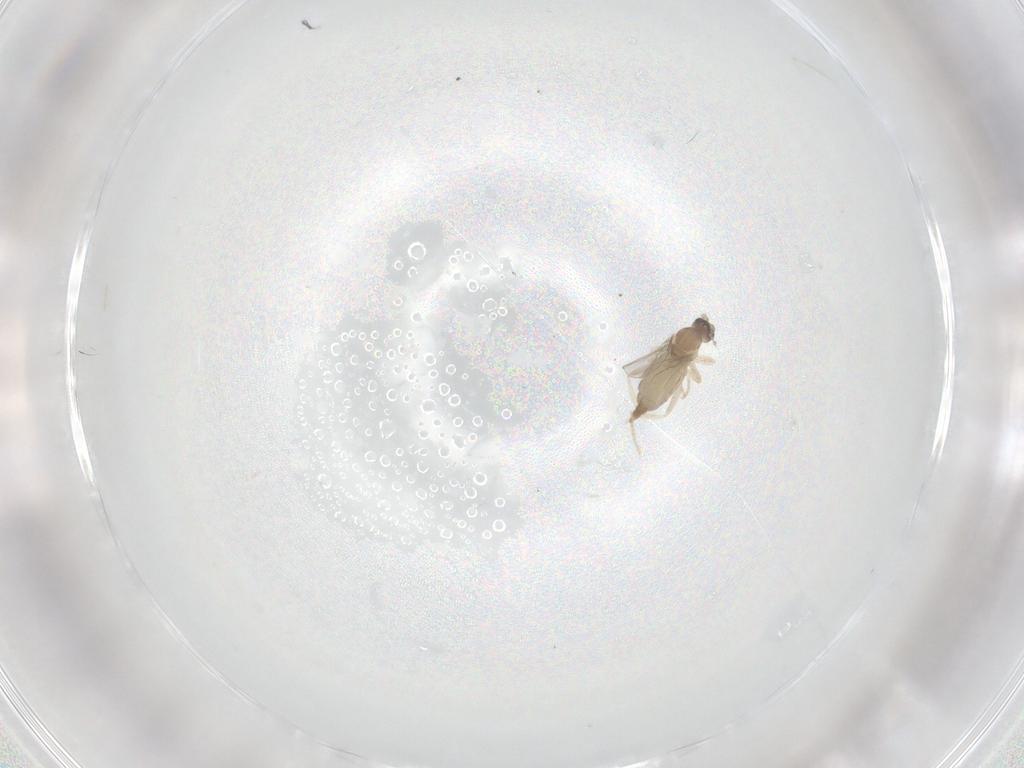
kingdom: Animalia
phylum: Arthropoda
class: Insecta
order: Diptera
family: Cecidomyiidae
